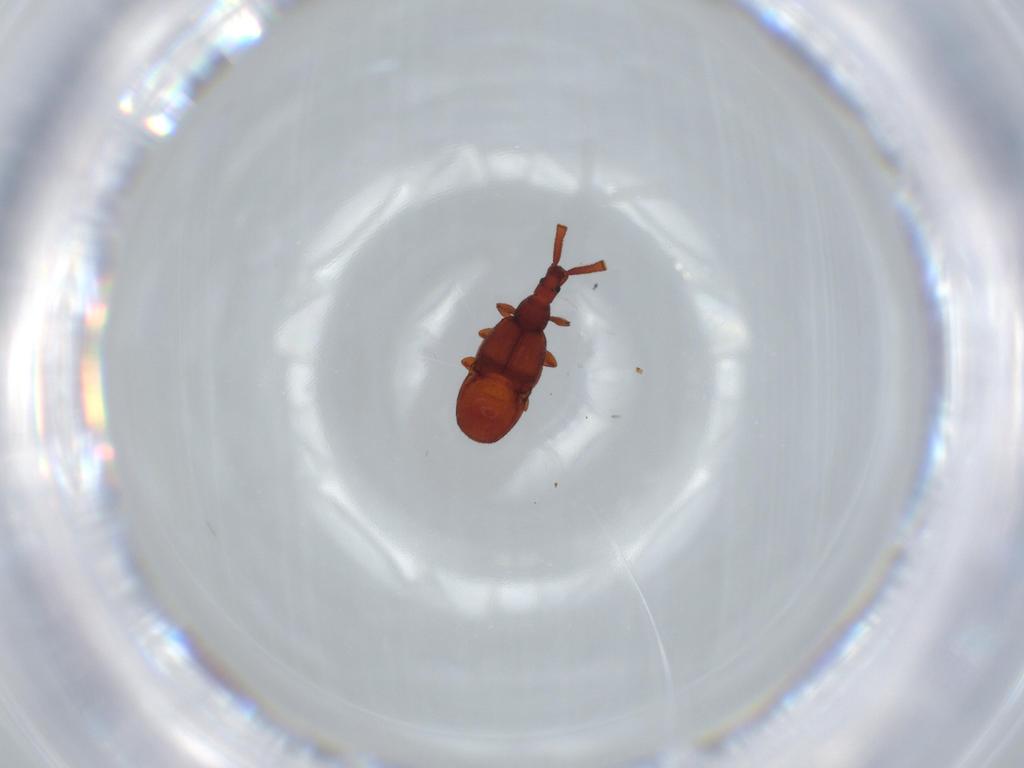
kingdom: Animalia
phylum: Arthropoda
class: Insecta
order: Coleoptera
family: Staphylinidae
